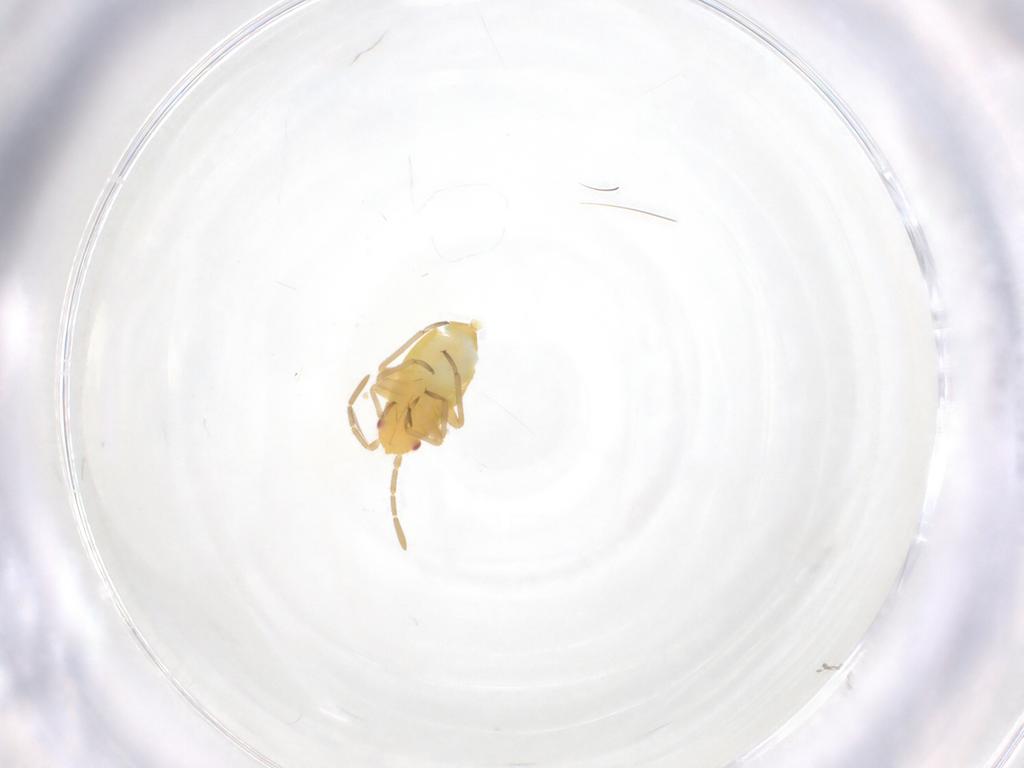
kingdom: Animalia
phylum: Arthropoda
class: Insecta
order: Hemiptera
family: Miridae
